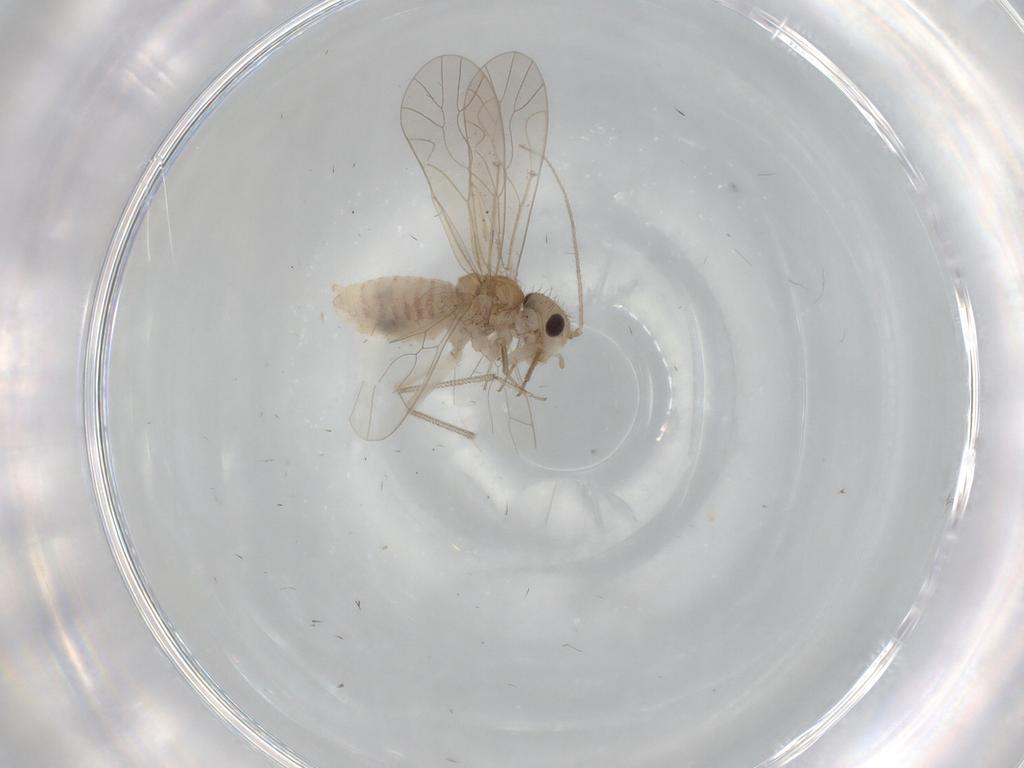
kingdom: Animalia
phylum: Arthropoda
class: Insecta
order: Psocodea
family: Caeciliusidae
